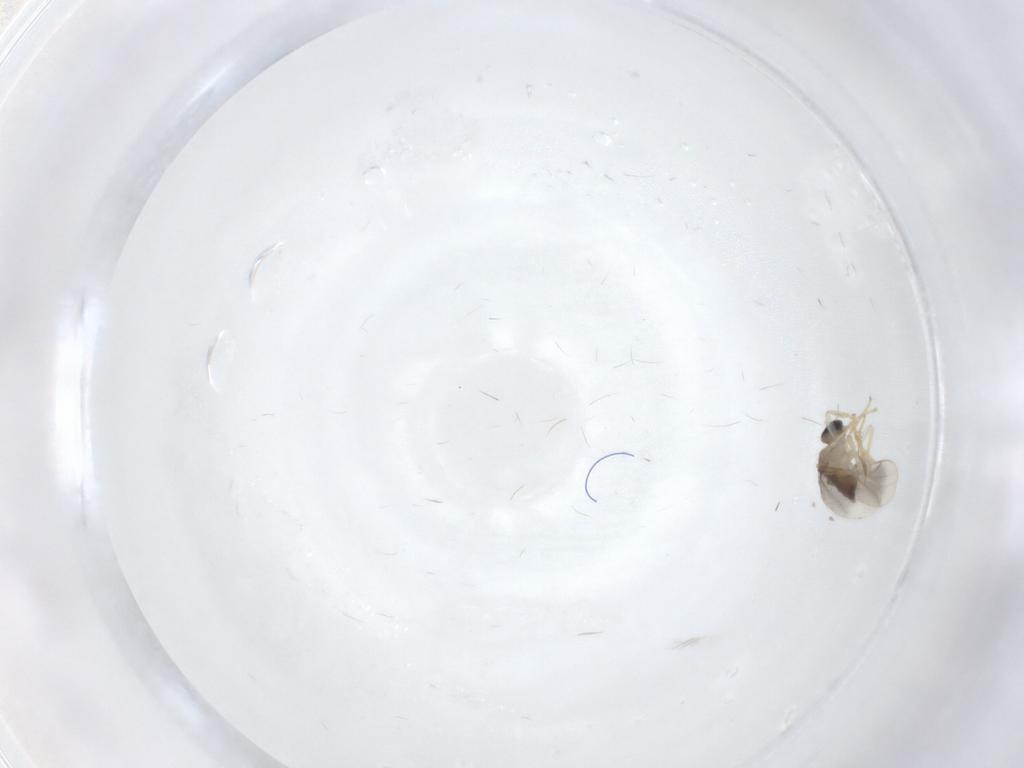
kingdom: Animalia
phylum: Arthropoda
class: Insecta
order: Diptera
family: Hybotidae
